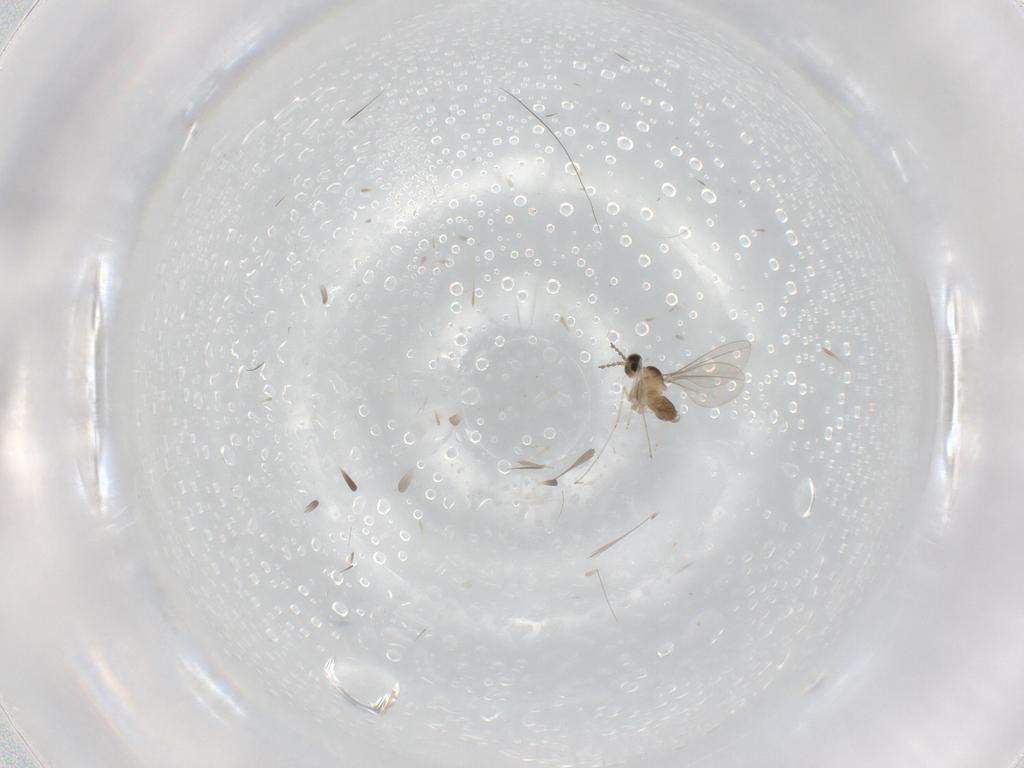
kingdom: Animalia
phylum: Arthropoda
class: Insecta
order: Diptera
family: Cecidomyiidae
